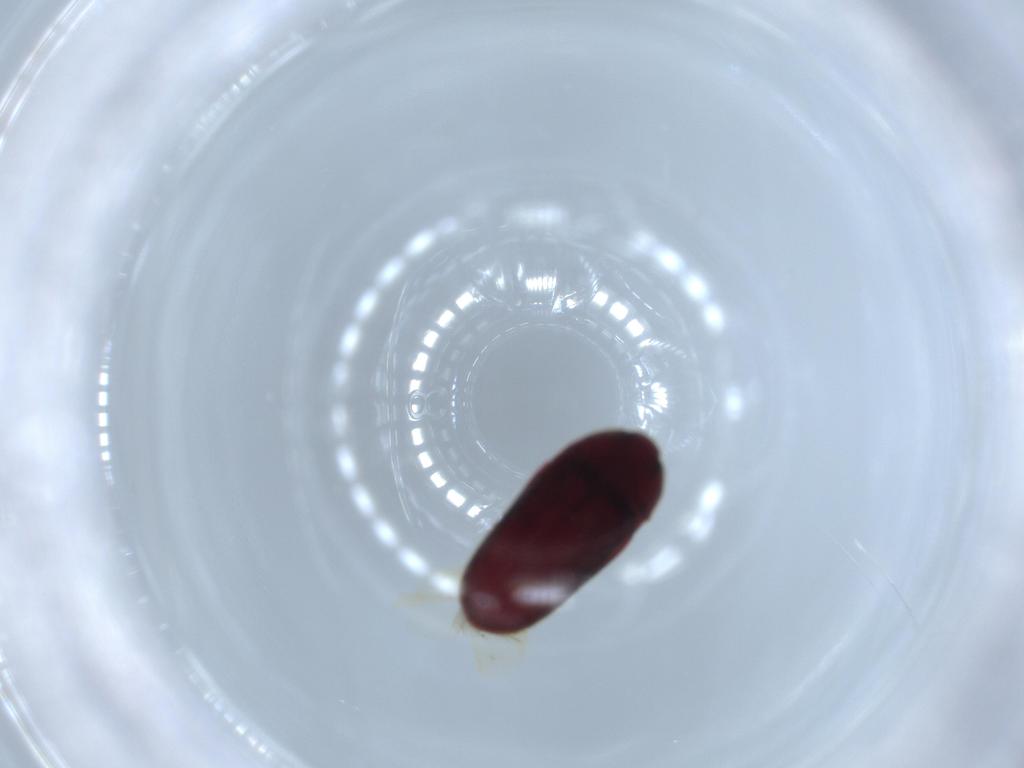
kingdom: Animalia
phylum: Arthropoda
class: Insecta
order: Coleoptera
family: Throscidae
